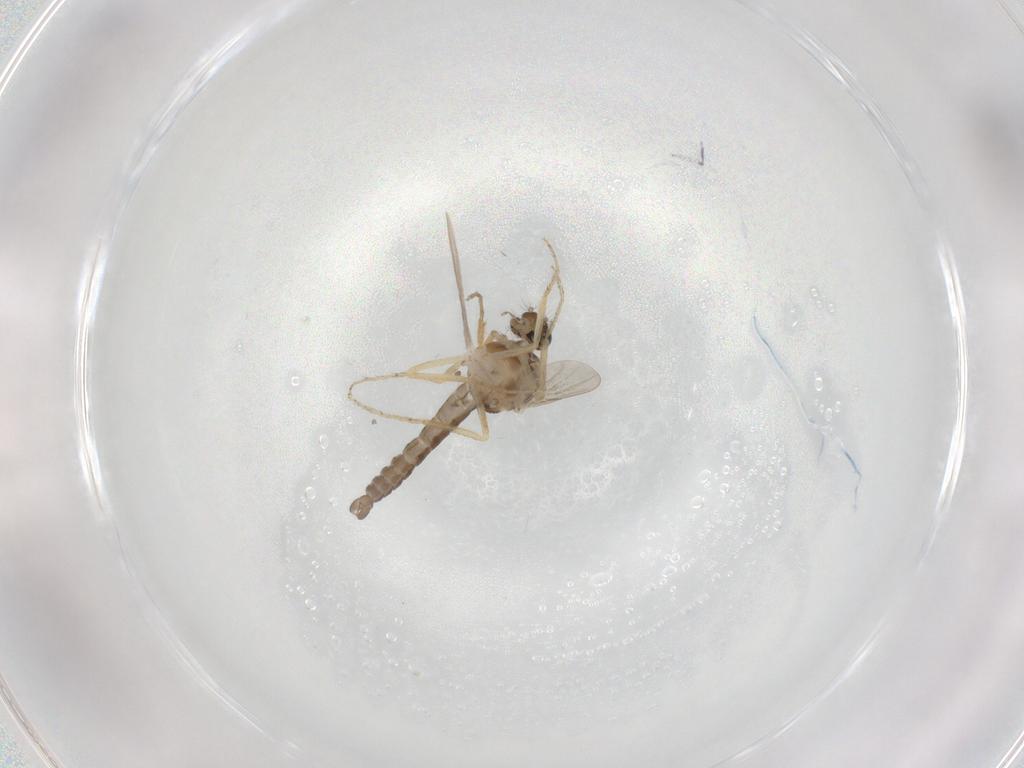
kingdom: Animalia
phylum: Arthropoda
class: Insecta
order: Diptera
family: Ceratopogonidae
